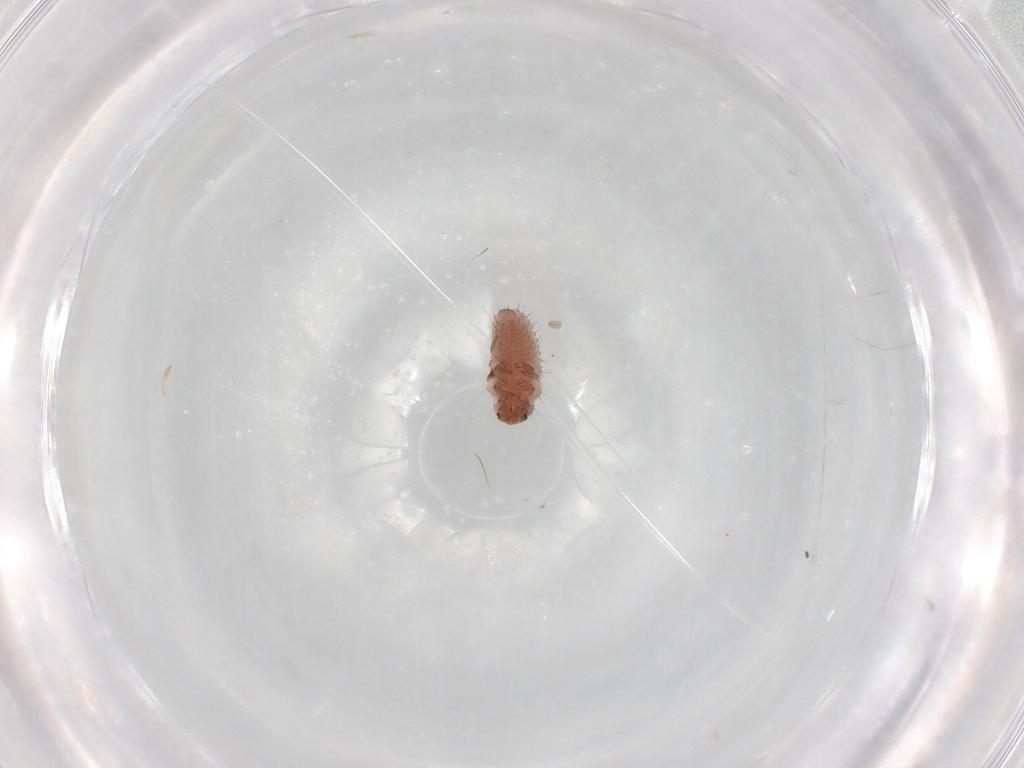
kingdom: Animalia
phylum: Arthropoda
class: Insecta
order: Coleoptera
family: Coccinellidae
